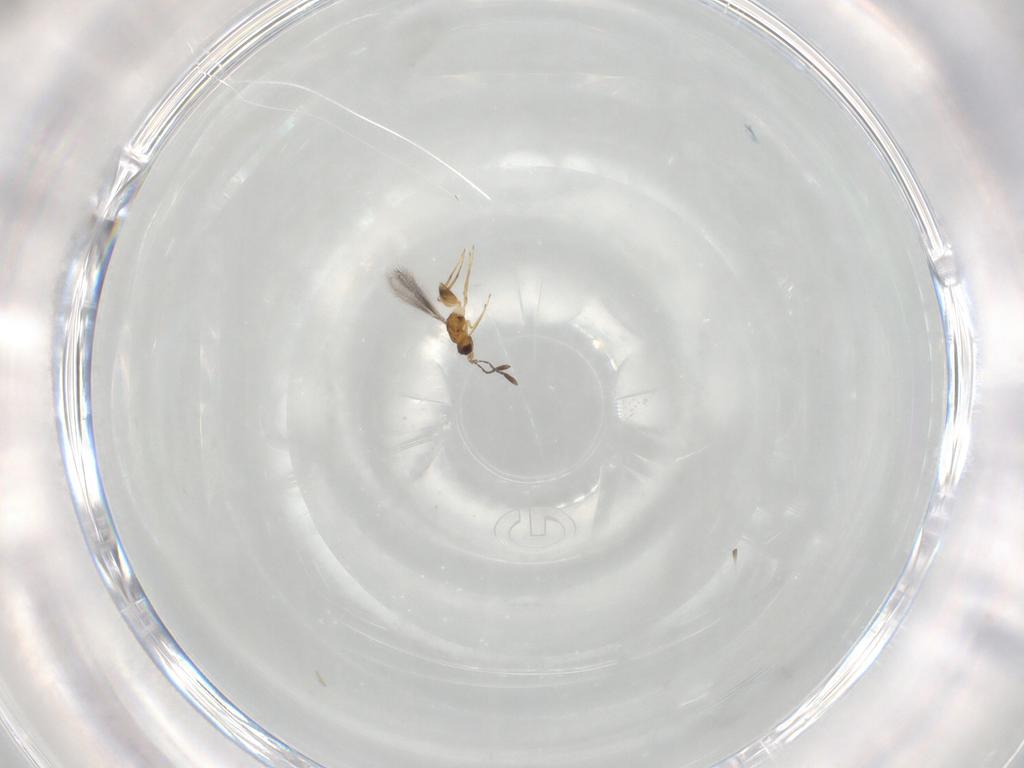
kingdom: Animalia
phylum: Arthropoda
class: Insecta
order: Hymenoptera
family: Mymaridae
